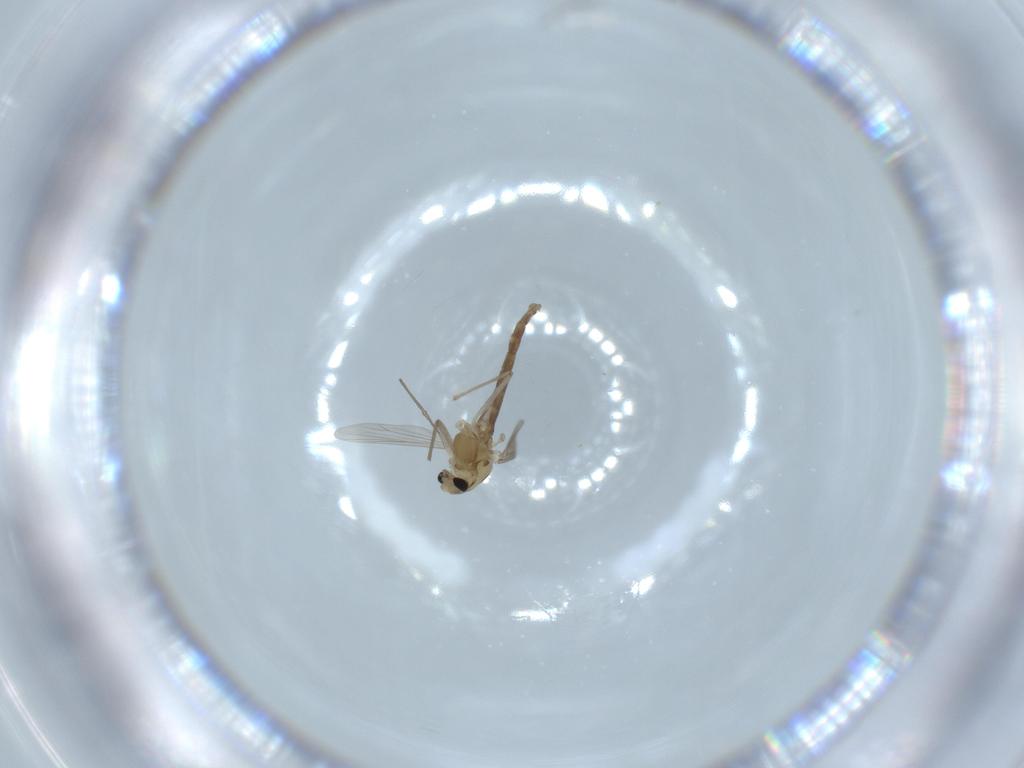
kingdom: Animalia
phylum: Arthropoda
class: Insecta
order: Diptera
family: Chironomidae
